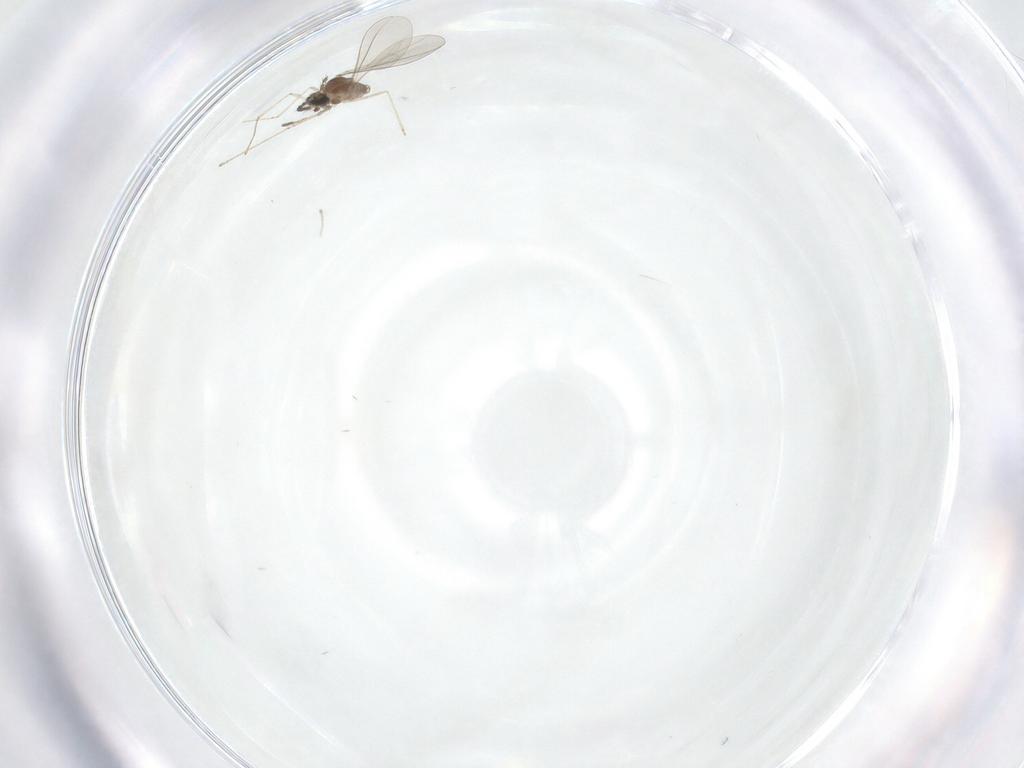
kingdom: Animalia
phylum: Arthropoda
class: Insecta
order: Diptera
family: Cecidomyiidae
